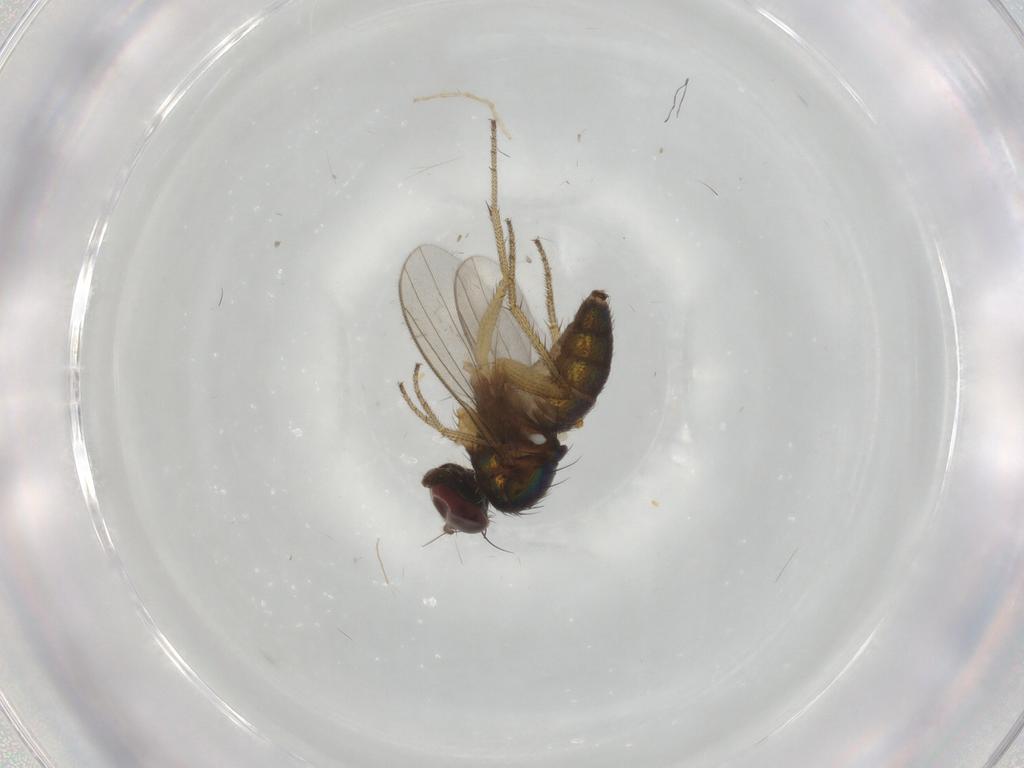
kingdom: Animalia
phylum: Arthropoda
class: Insecta
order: Diptera
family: Dolichopodidae
